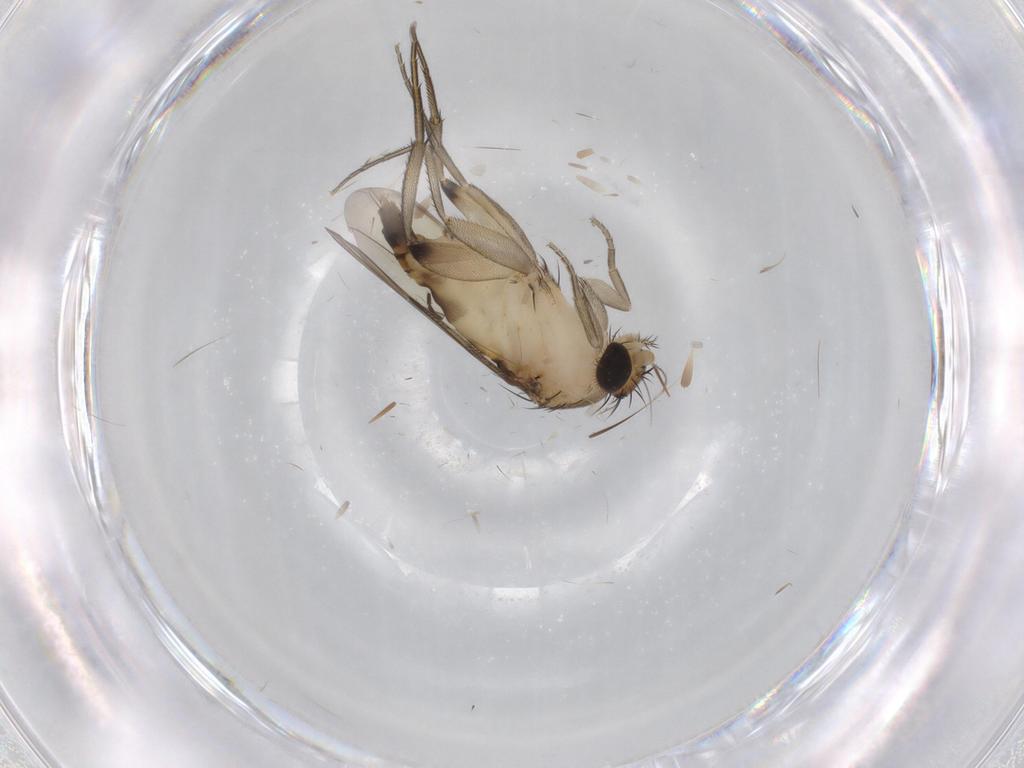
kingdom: Animalia
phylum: Arthropoda
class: Insecta
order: Diptera
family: Phoridae
